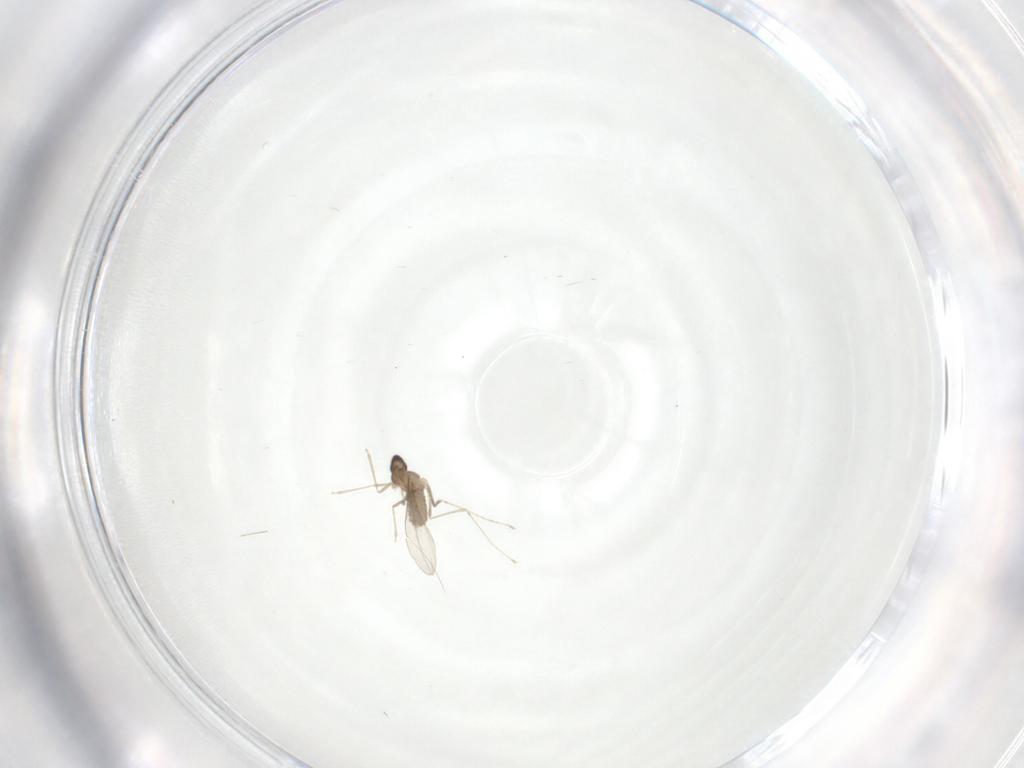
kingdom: Animalia
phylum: Arthropoda
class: Insecta
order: Diptera
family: Cecidomyiidae
